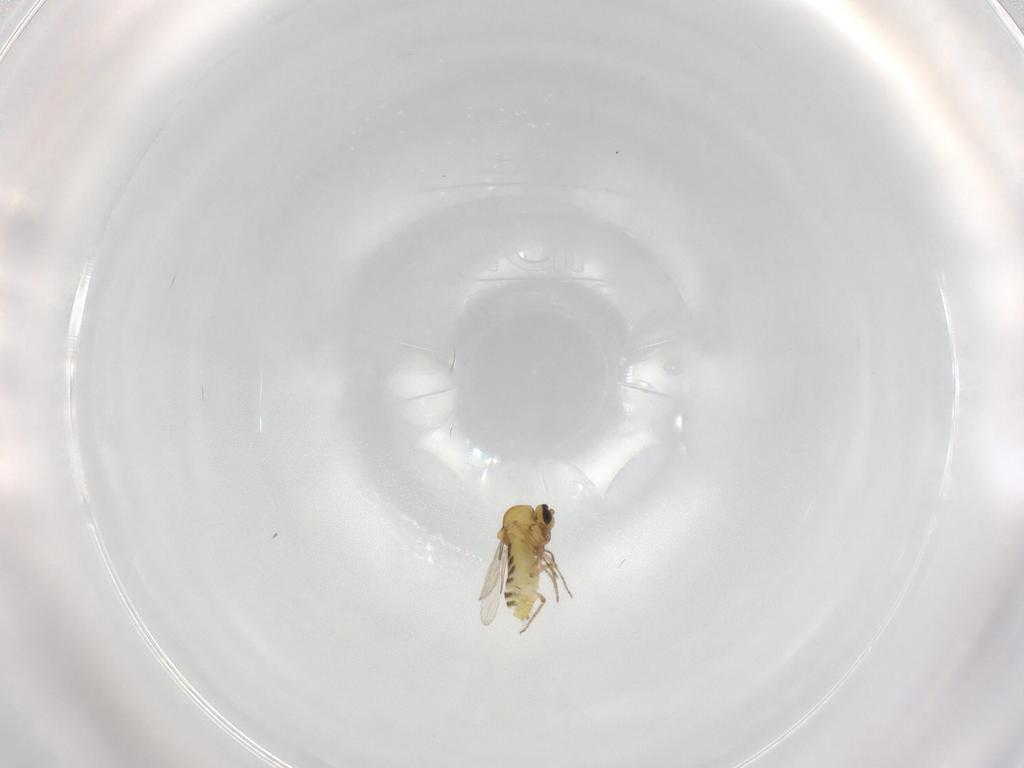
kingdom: Animalia
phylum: Arthropoda
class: Insecta
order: Diptera
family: Ceratopogonidae
